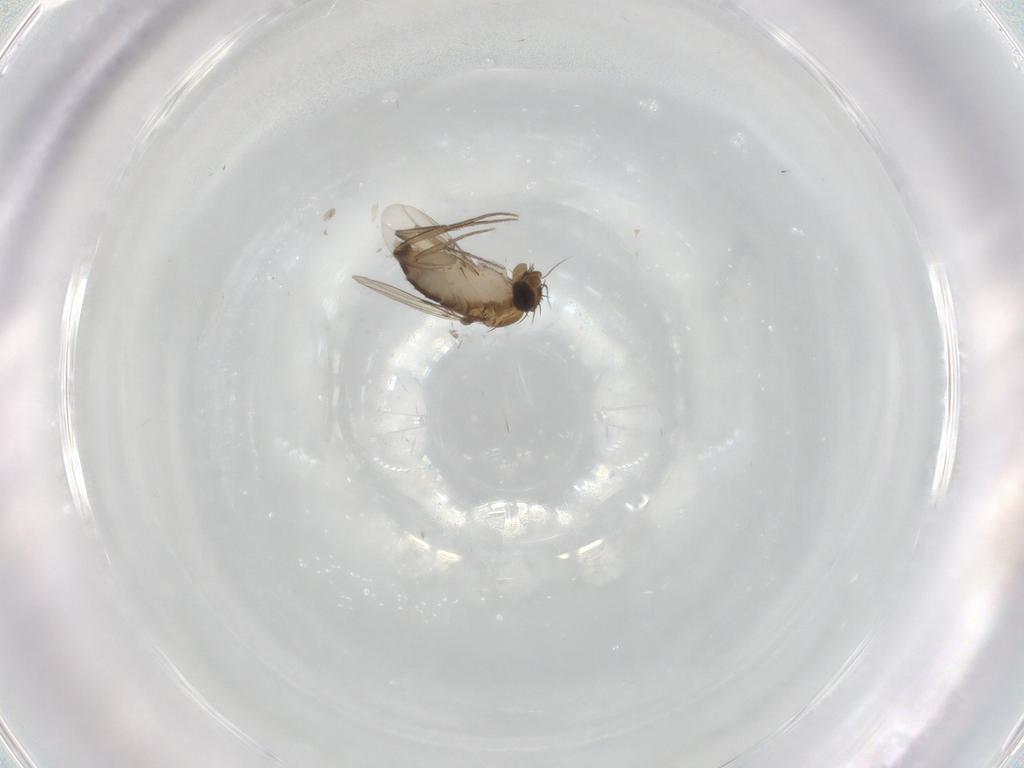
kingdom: Animalia
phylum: Arthropoda
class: Insecta
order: Diptera
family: Phoridae
